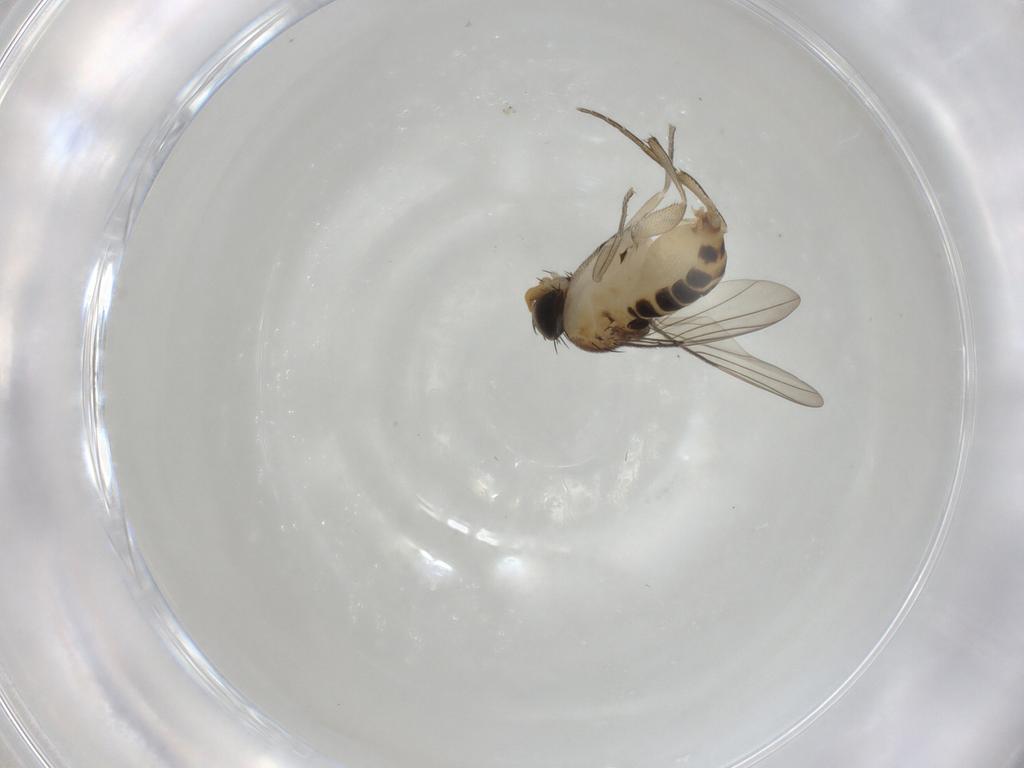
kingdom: Animalia
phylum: Arthropoda
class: Insecta
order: Diptera
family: Phoridae
